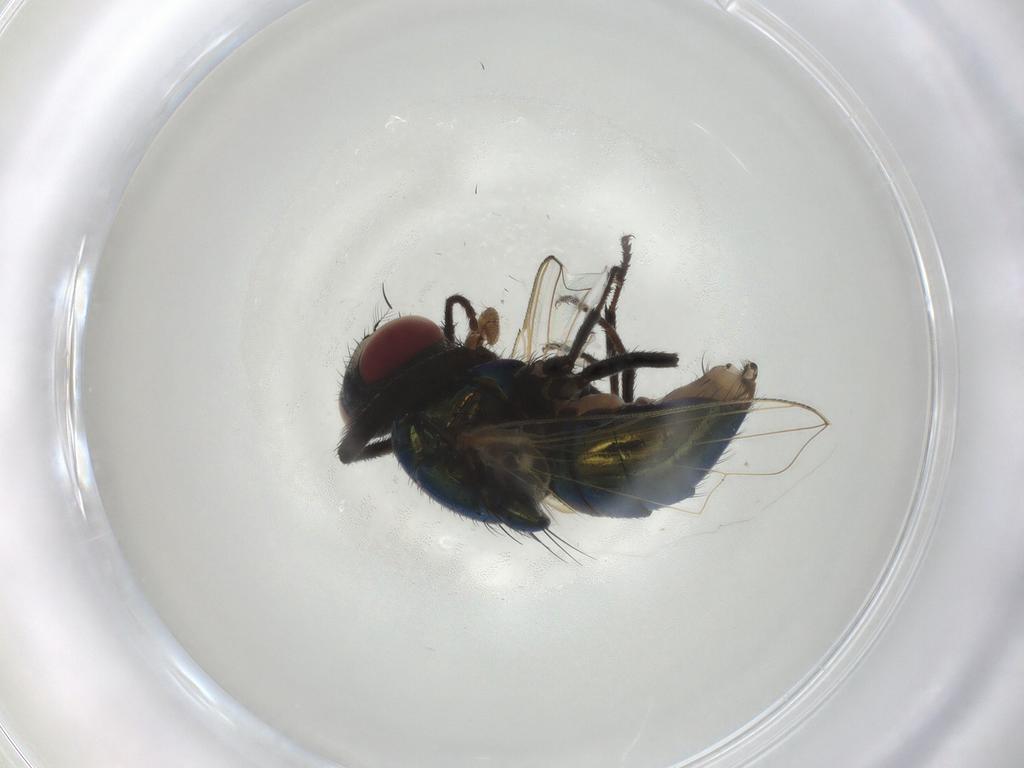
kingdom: Animalia
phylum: Arthropoda
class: Insecta
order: Diptera
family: Muscidae
